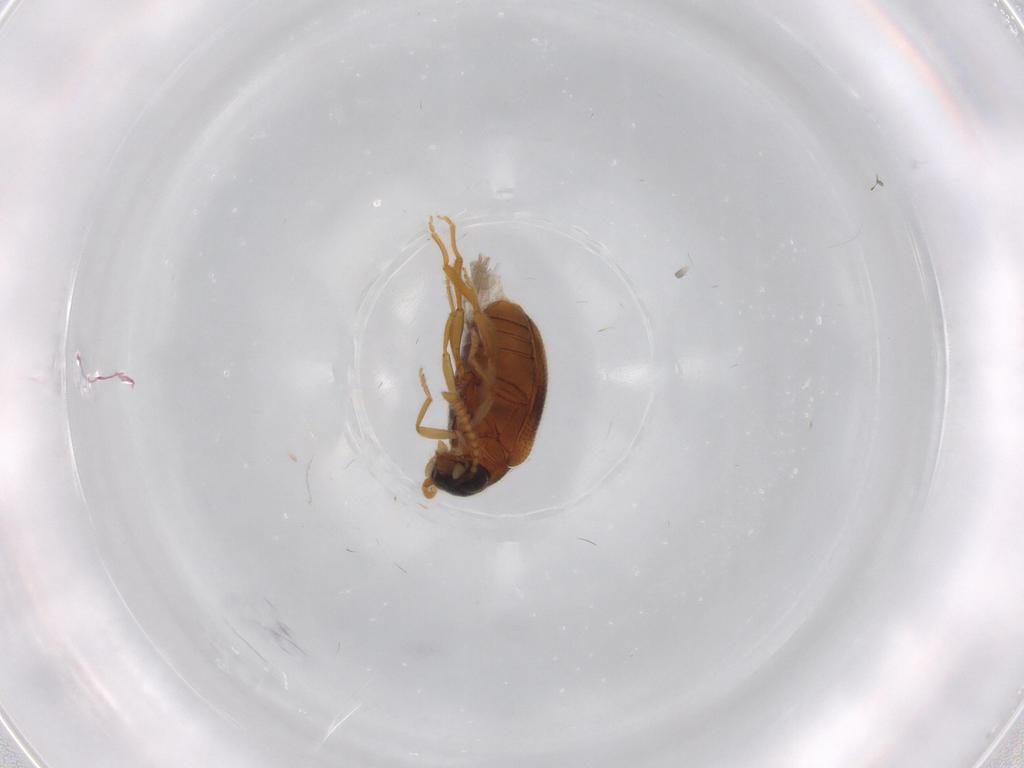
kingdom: Animalia
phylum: Arthropoda
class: Insecta
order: Coleoptera
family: Aderidae
